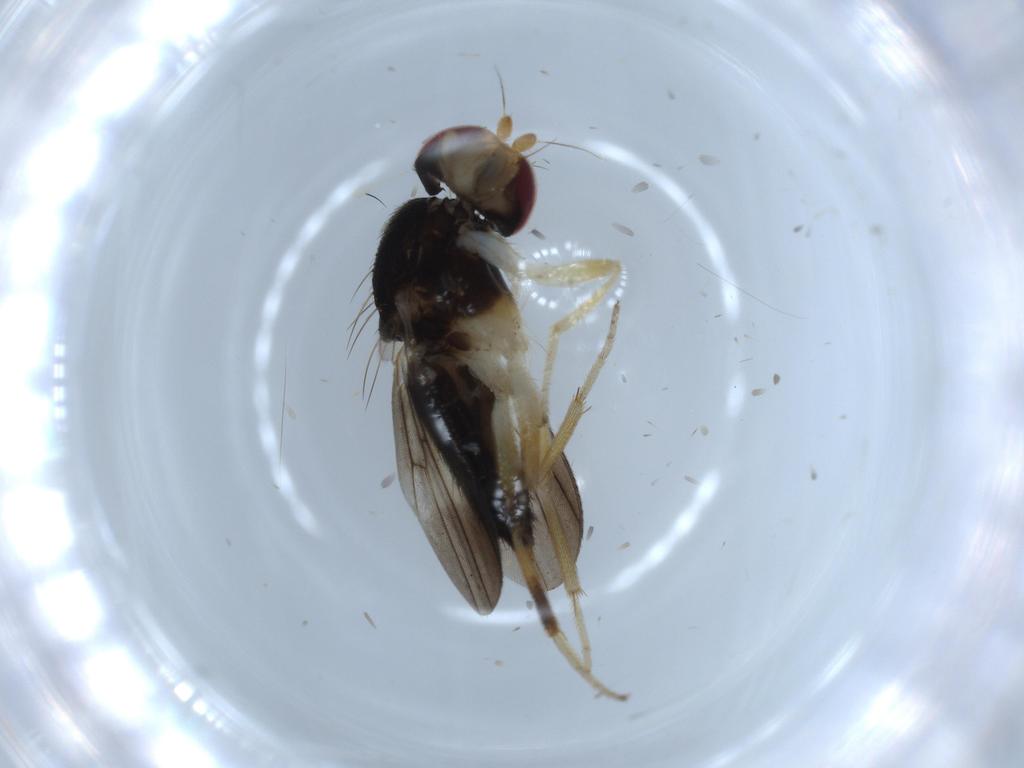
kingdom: Animalia
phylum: Arthropoda
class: Insecta
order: Diptera
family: Clusiidae
